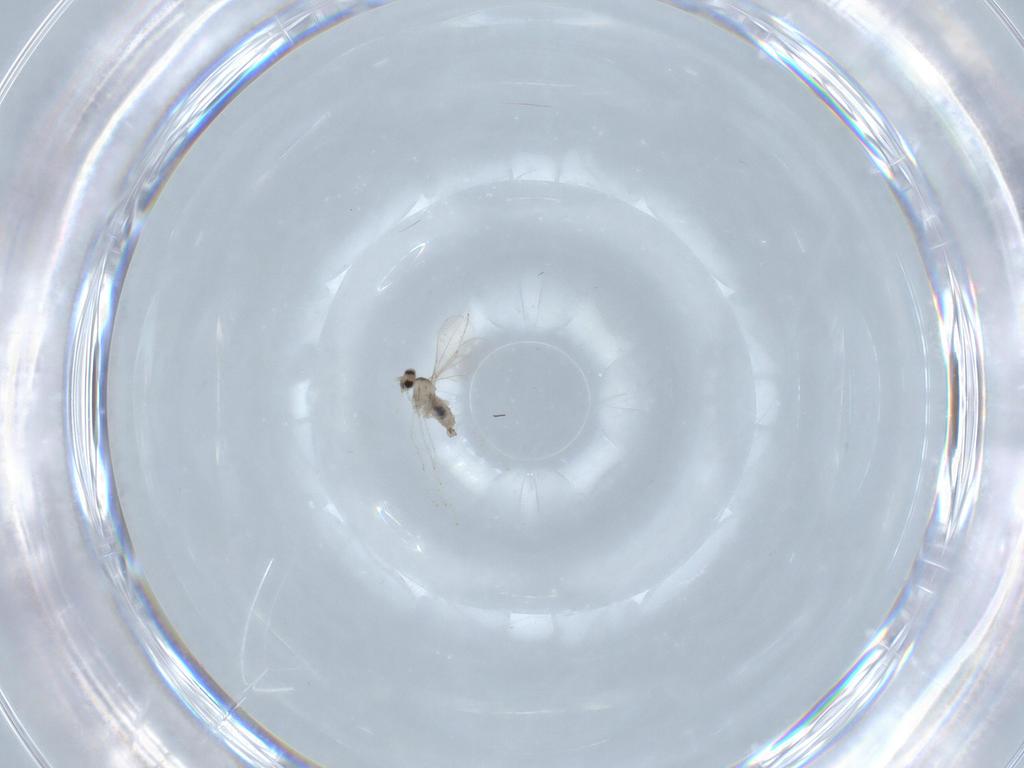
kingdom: Animalia
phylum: Arthropoda
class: Insecta
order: Diptera
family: Cecidomyiidae
